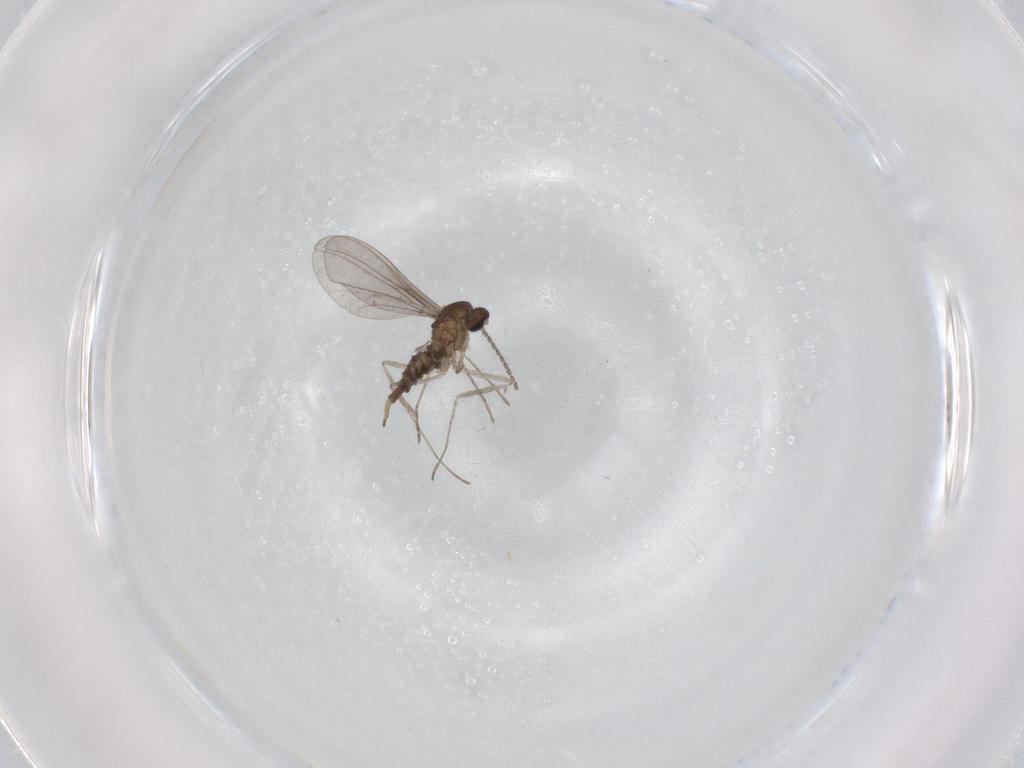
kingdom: Animalia
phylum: Arthropoda
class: Insecta
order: Diptera
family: Cecidomyiidae
